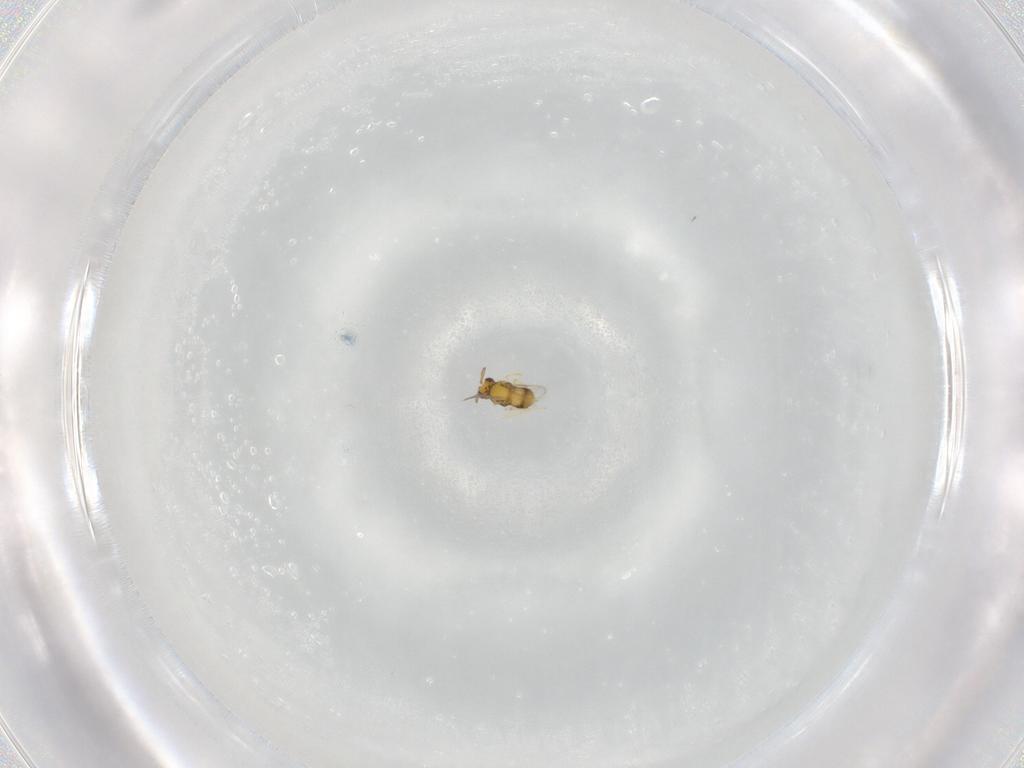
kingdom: Animalia
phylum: Arthropoda
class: Insecta
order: Hymenoptera
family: Aphelinidae
